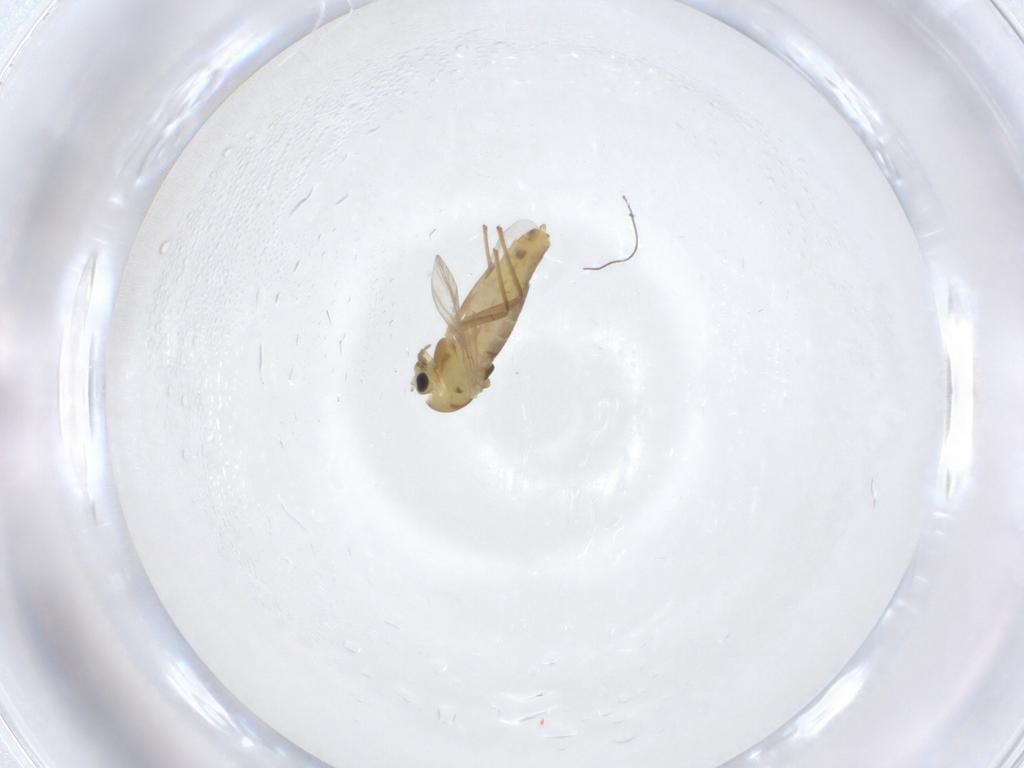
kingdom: Animalia
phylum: Arthropoda
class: Insecta
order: Diptera
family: Chironomidae
